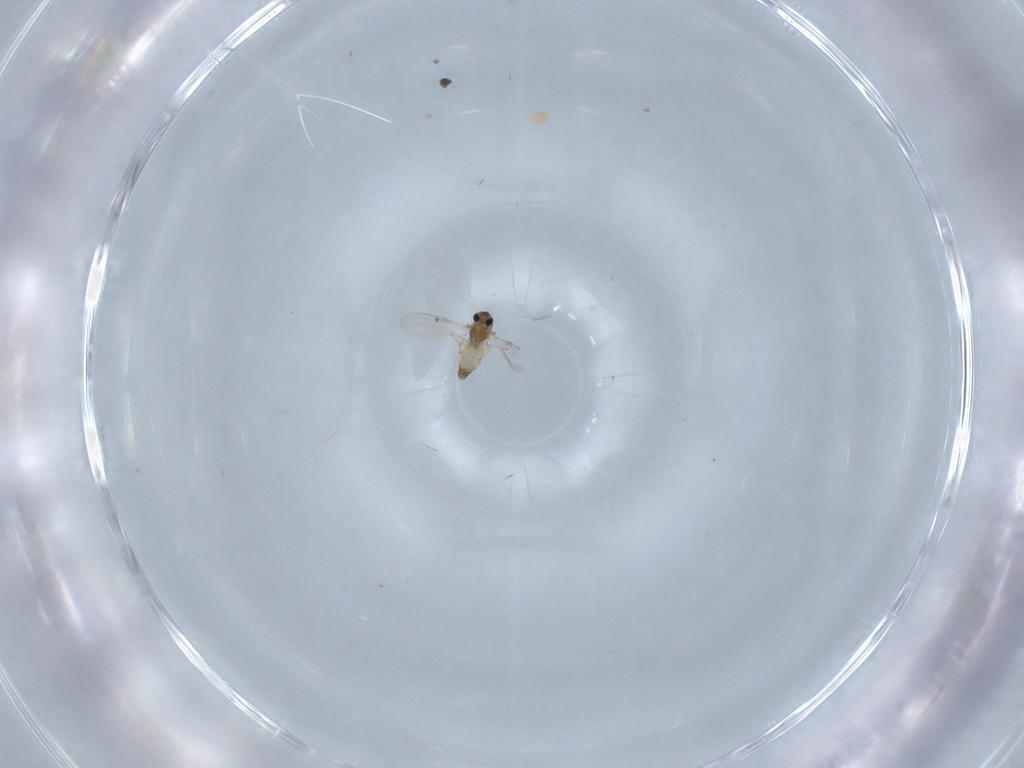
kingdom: Animalia
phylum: Arthropoda
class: Insecta
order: Diptera
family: Chironomidae
